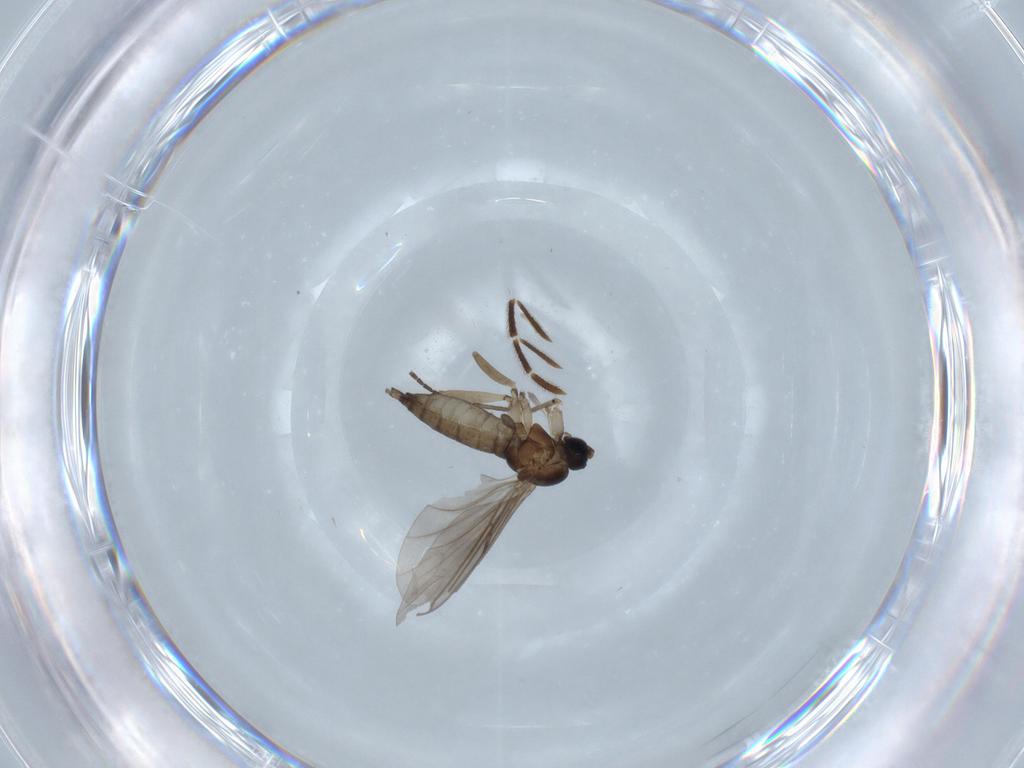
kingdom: Animalia
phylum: Arthropoda
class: Insecta
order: Diptera
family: Sciaridae
